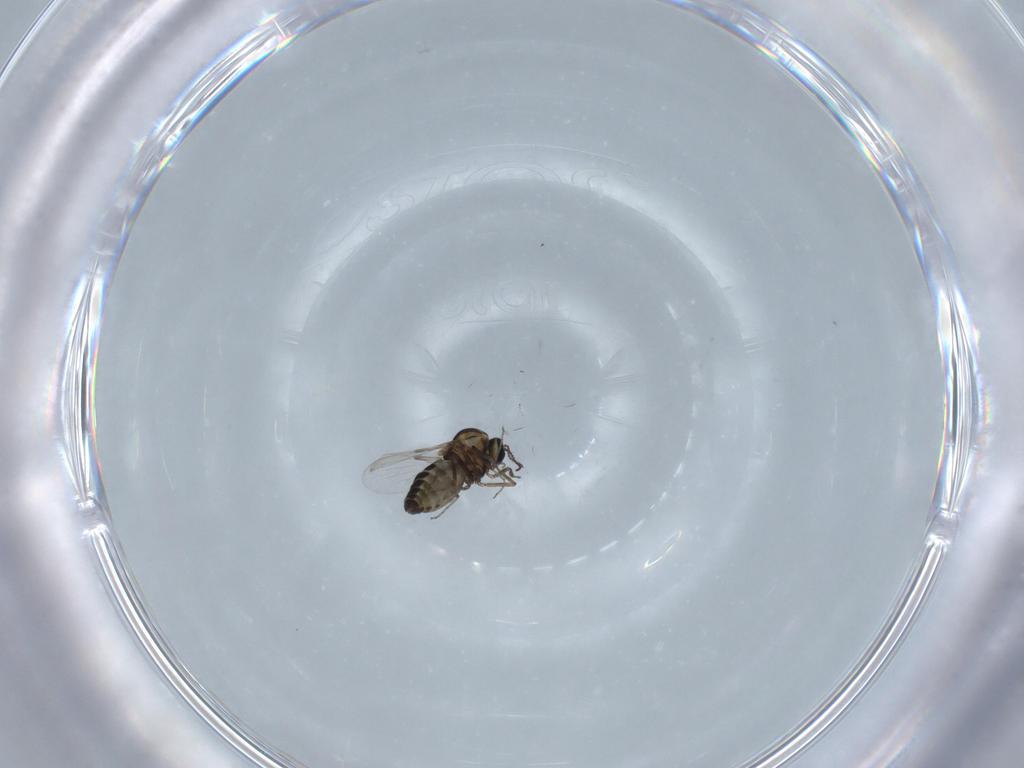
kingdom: Animalia
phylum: Arthropoda
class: Insecta
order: Diptera
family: Ceratopogonidae
